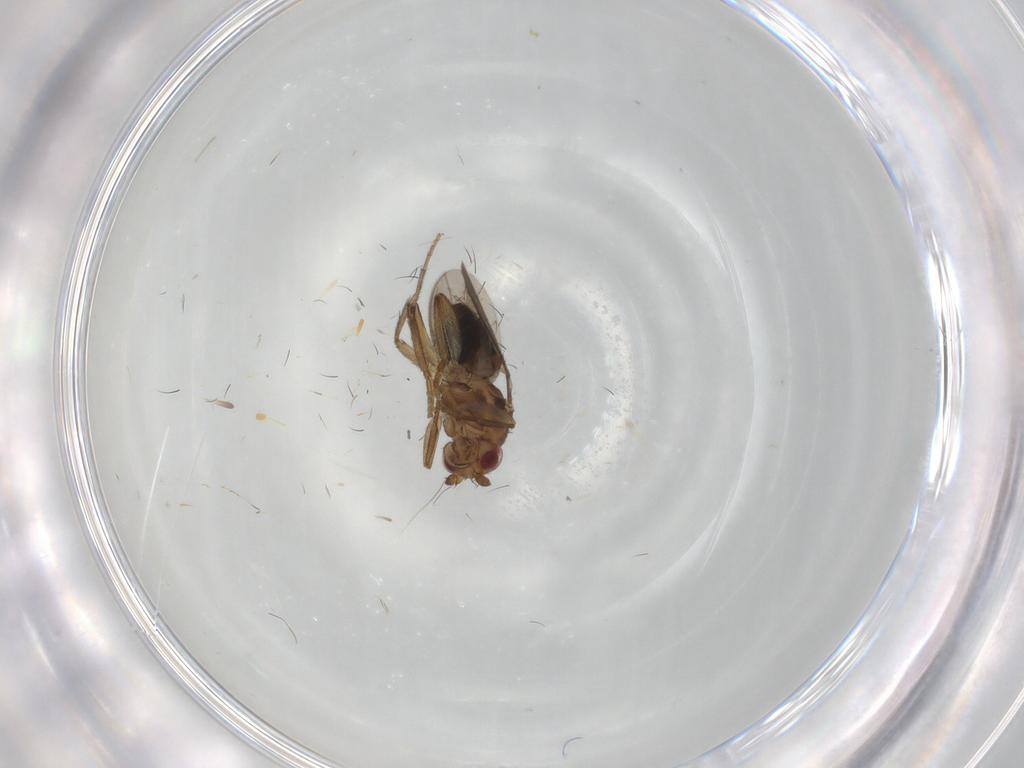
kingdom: Animalia
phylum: Arthropoda
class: Insecta
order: Diptera
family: Sphaeroceridae
